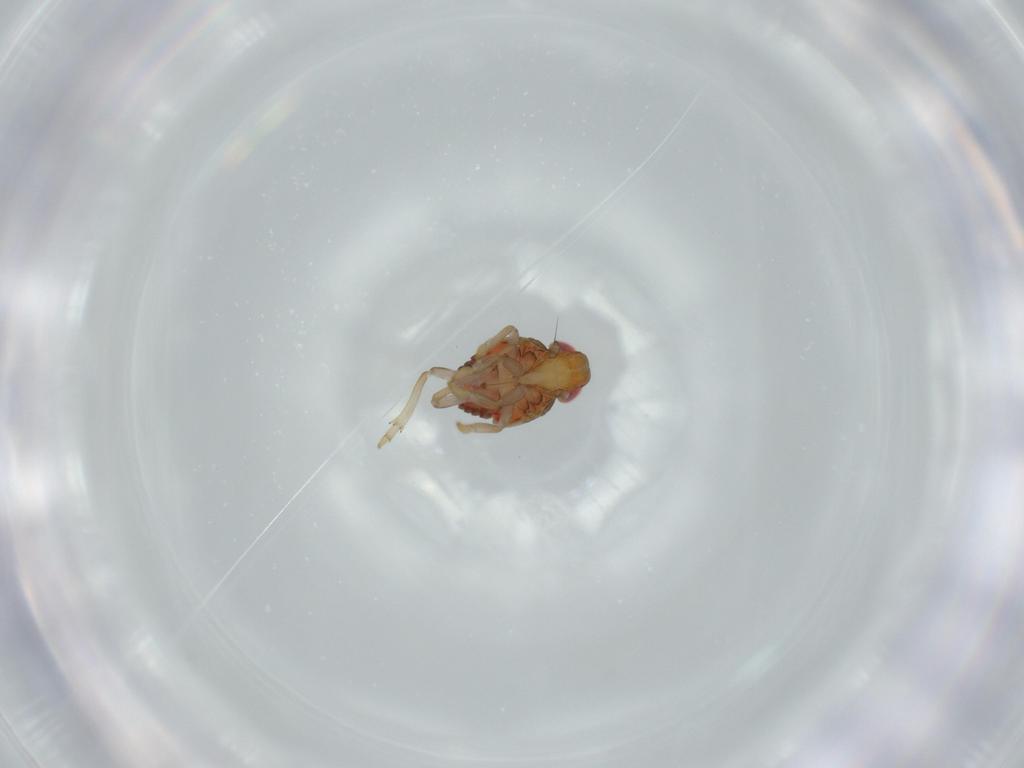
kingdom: Animalia
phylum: Arthropoda
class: Insecta
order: Hemiptera
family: Issidae
